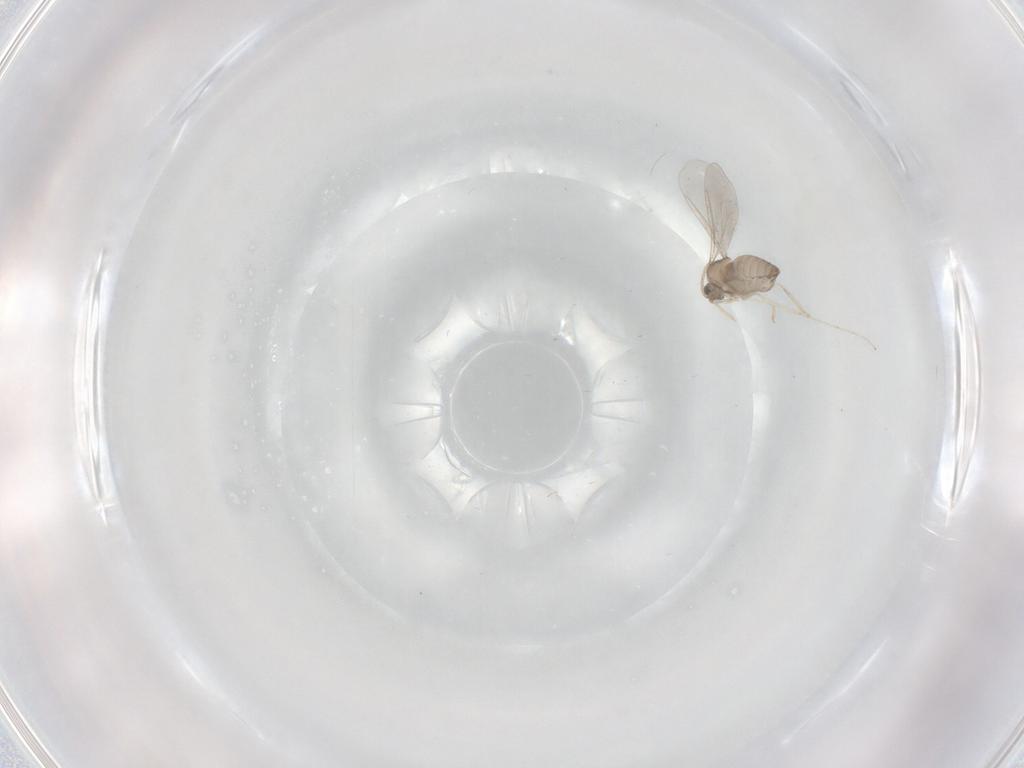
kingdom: Animalia
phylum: Arthropoda
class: Insecta
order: Diptera
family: Cecidomyiidae
